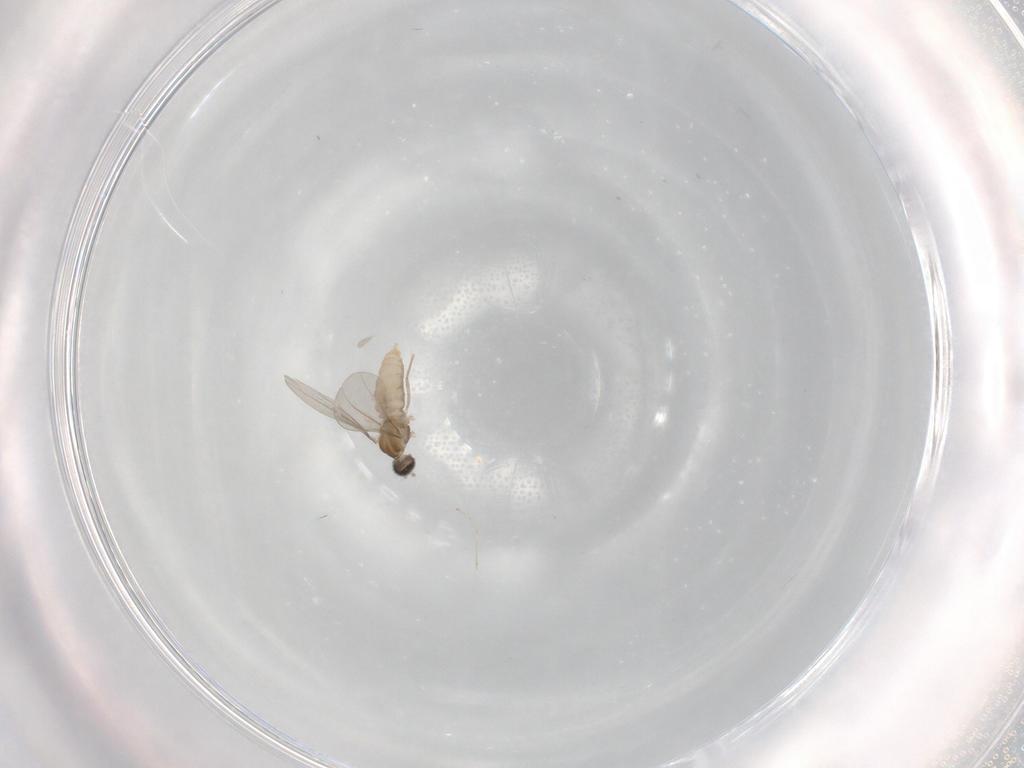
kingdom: Animalia
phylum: Arthropoda
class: Insecta
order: Diptera
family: Cecidomyiidae
